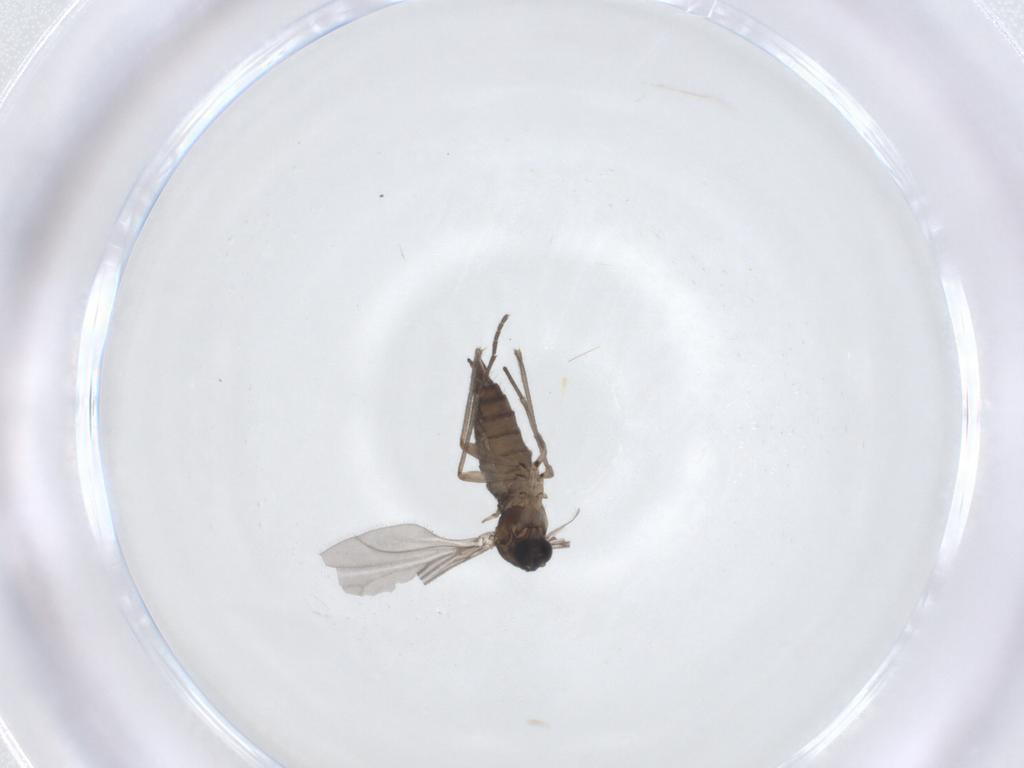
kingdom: Animalia
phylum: Arthropoda
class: Insecta
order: Diptera
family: Sciaridae
